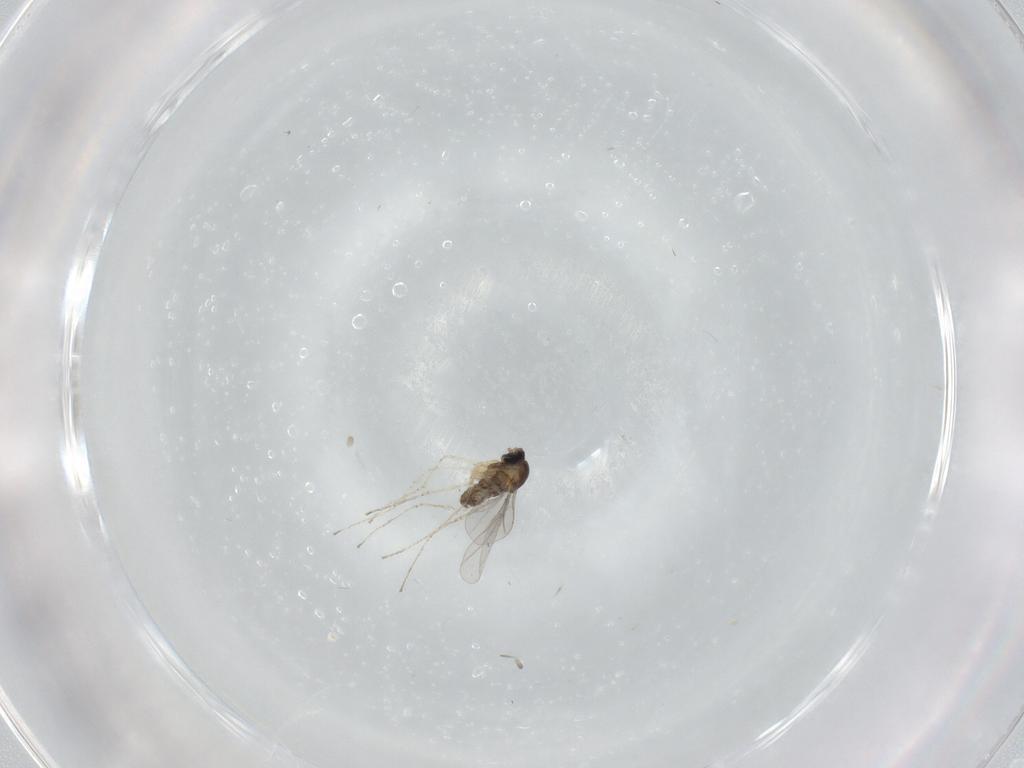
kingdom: Animalia
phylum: Arthropoda
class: Insecta
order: Diptera
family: Cecidomyiidae
